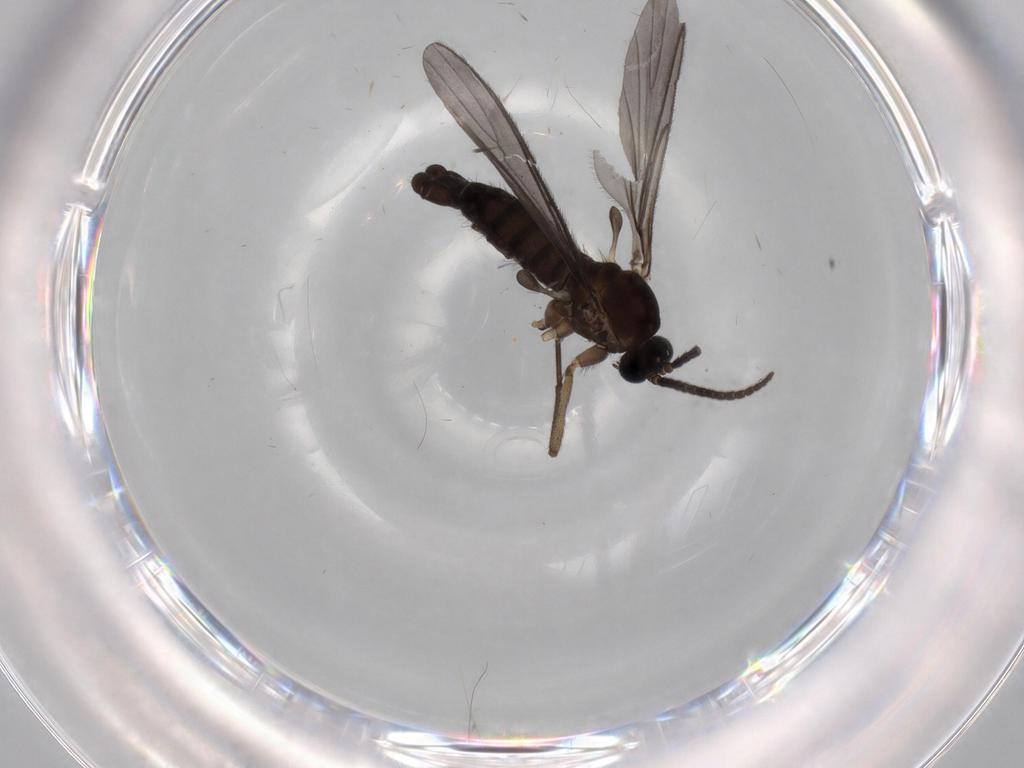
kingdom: Animalia
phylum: Arthropoda
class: Insecta
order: Diptera
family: Sciaridae
